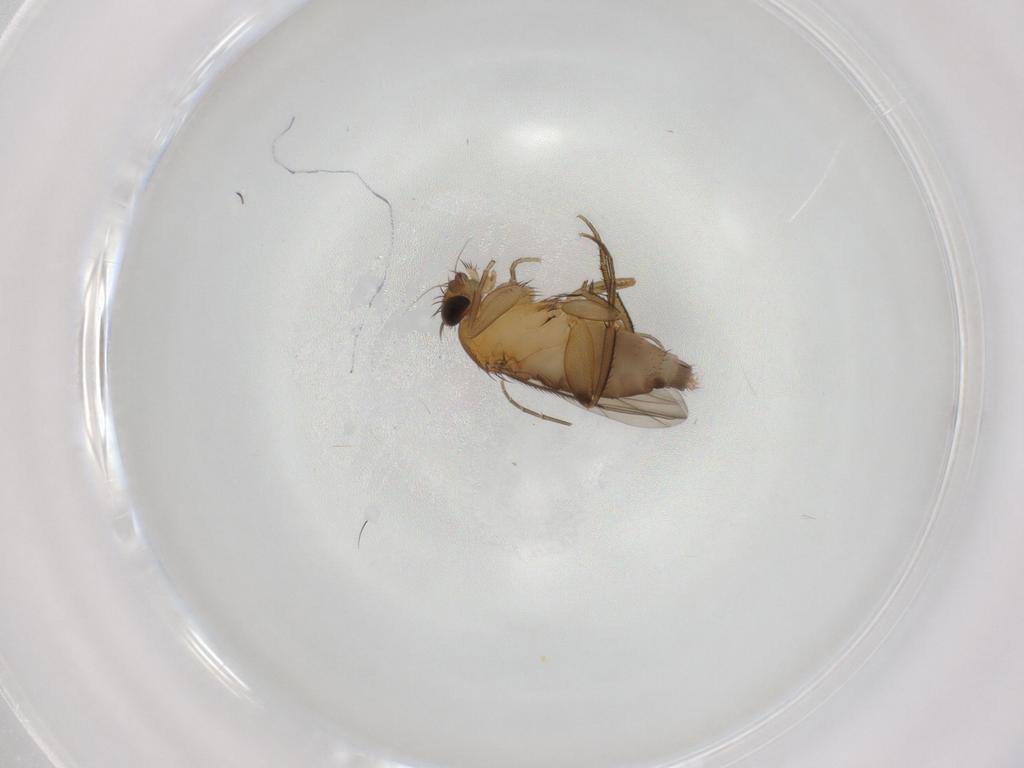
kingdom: Animalia
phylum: Arthropoda
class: Insecta
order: Diptera
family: Phoridae
